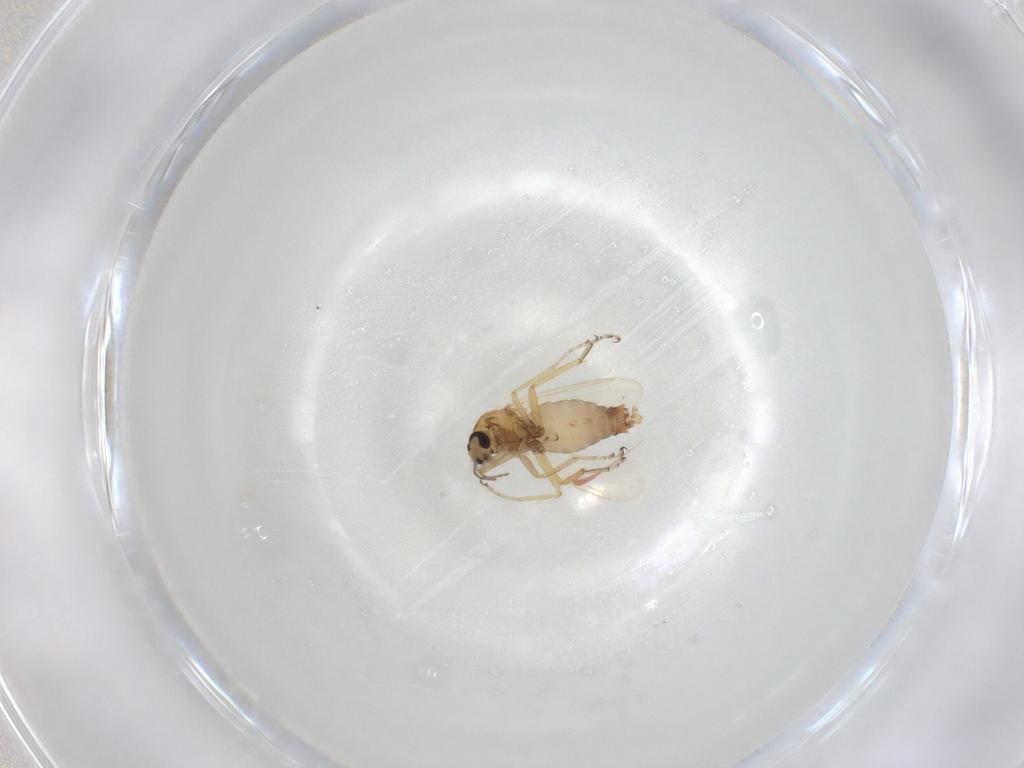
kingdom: Animalia
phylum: Arthropoda
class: Insecta
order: Diptera
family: Ceratopogonidae
